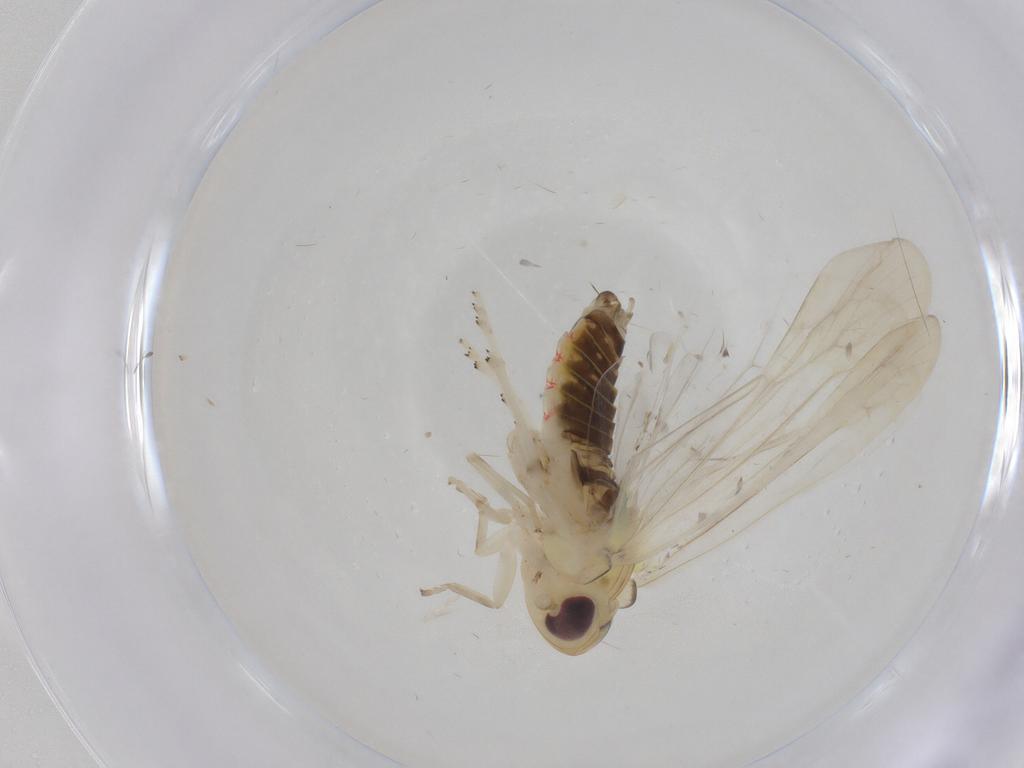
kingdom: Animalia
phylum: Arthropoda
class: Insecta
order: Hemiptera
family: Achilidae
